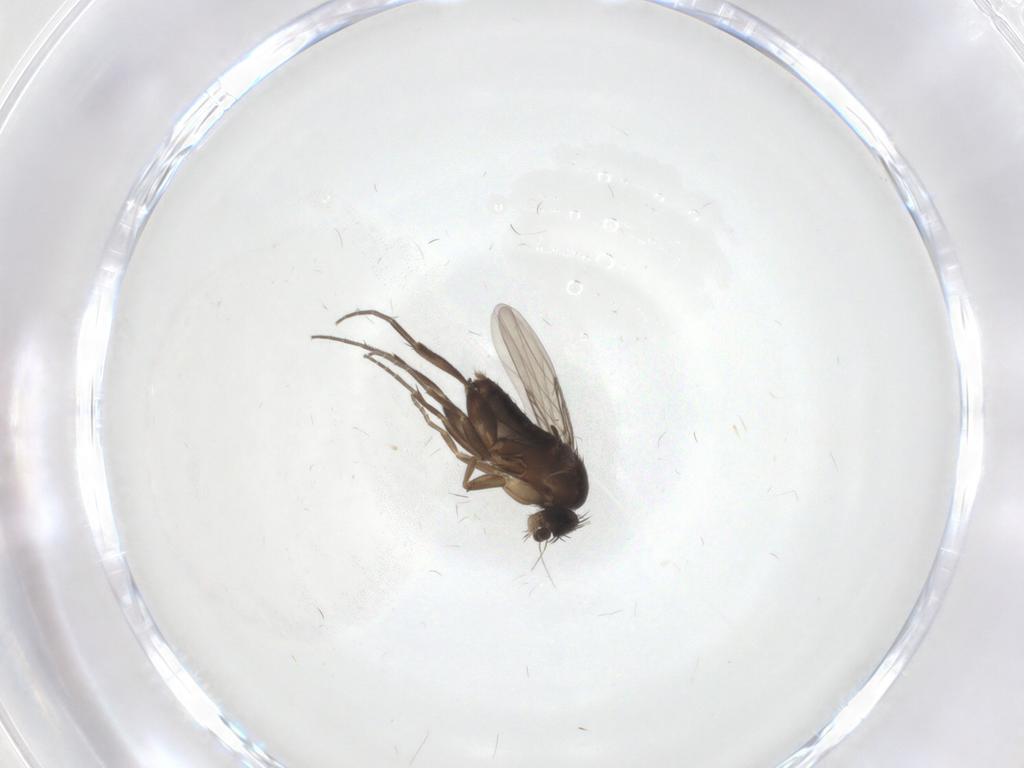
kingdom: Animalia
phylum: Arthropoda
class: Insecta
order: Diptera
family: Phoridae
